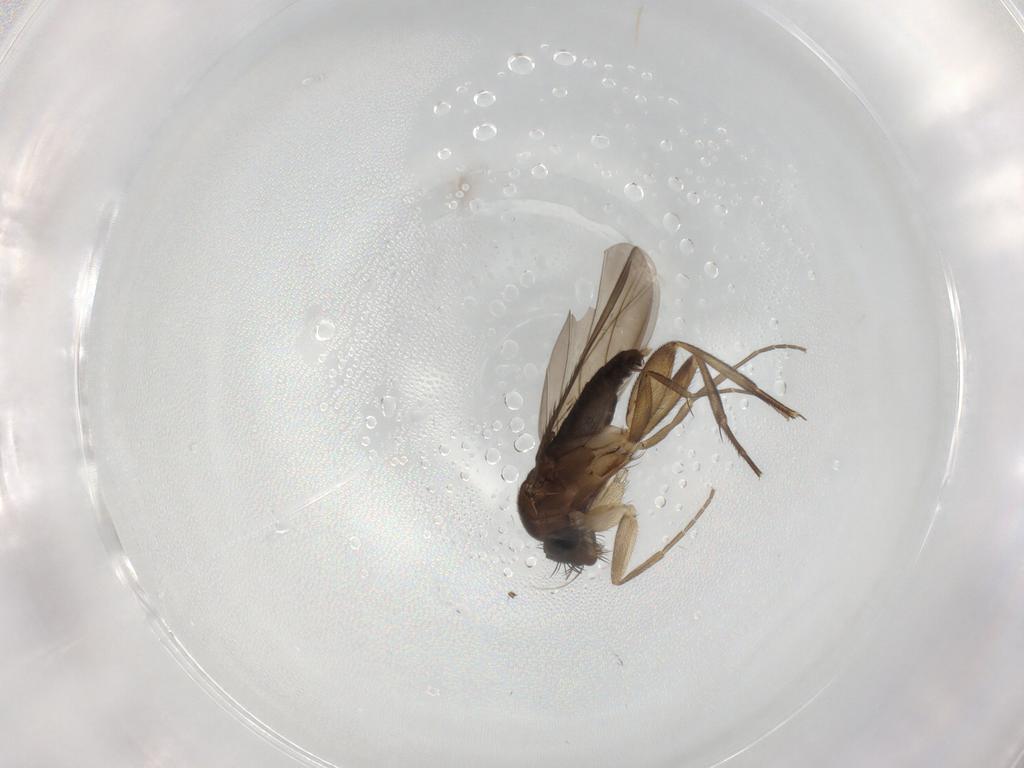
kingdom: Animalia
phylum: Arthropoda
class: Insecta
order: Diptera
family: Phoridae
